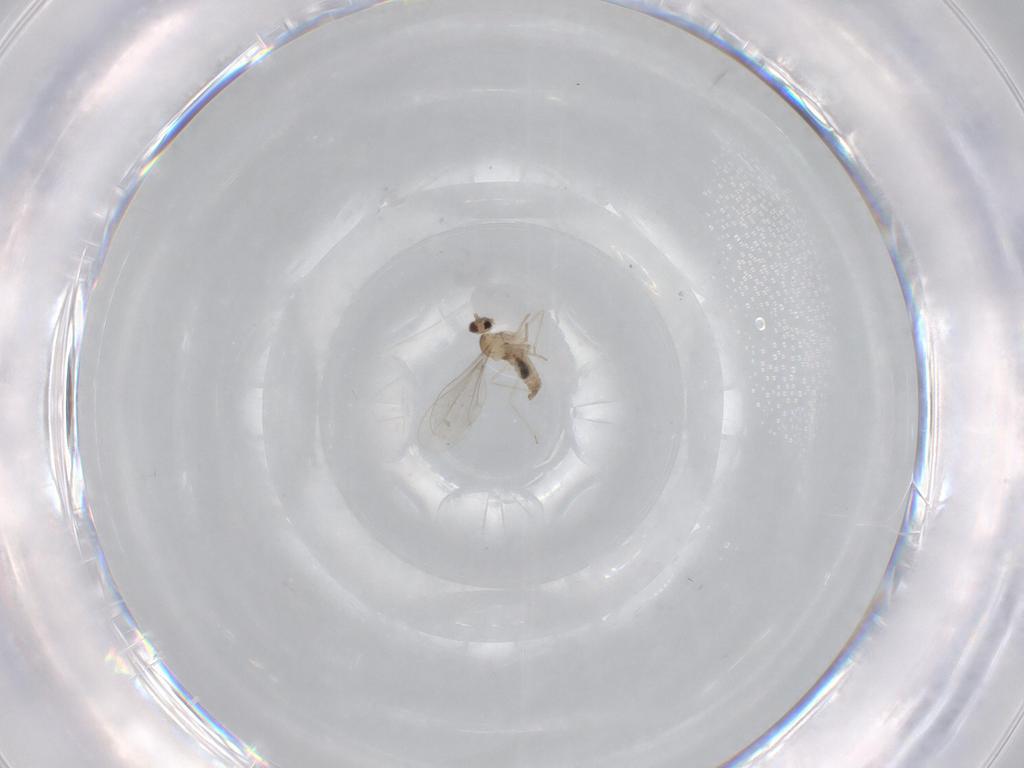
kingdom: Animalia
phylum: Arthropoda
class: Insecta
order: Diptera
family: Cecidomyiidae
